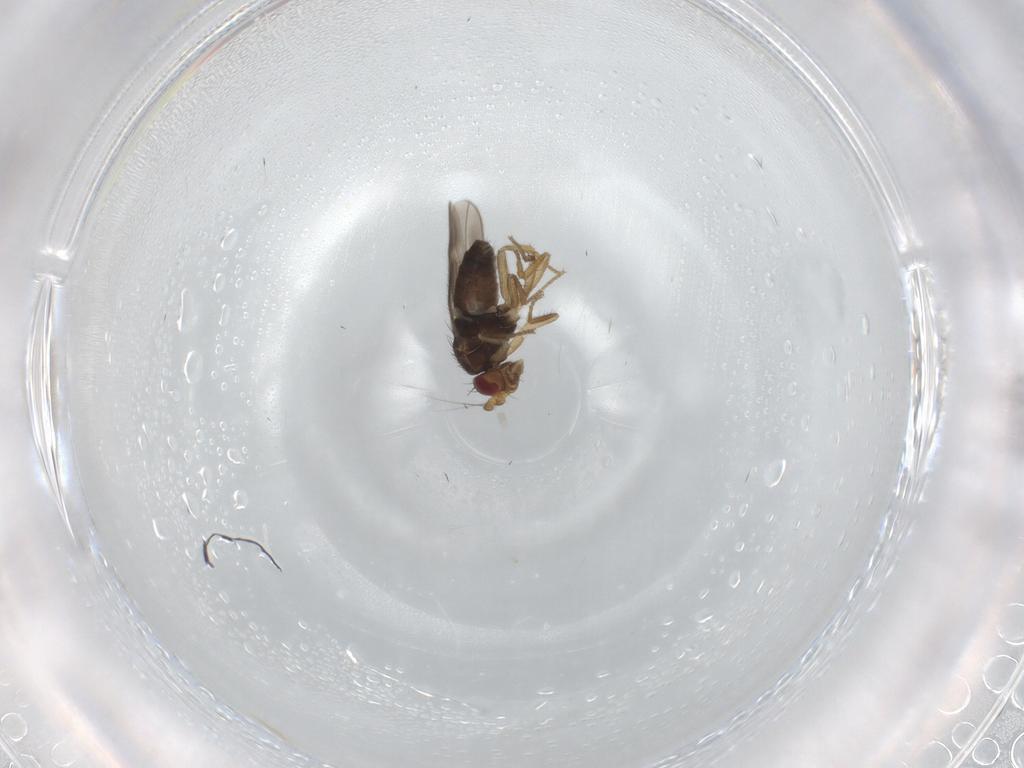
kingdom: Animalia
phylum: Arthropoda
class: Insecta
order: Diptera
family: Sphaeroceridae
